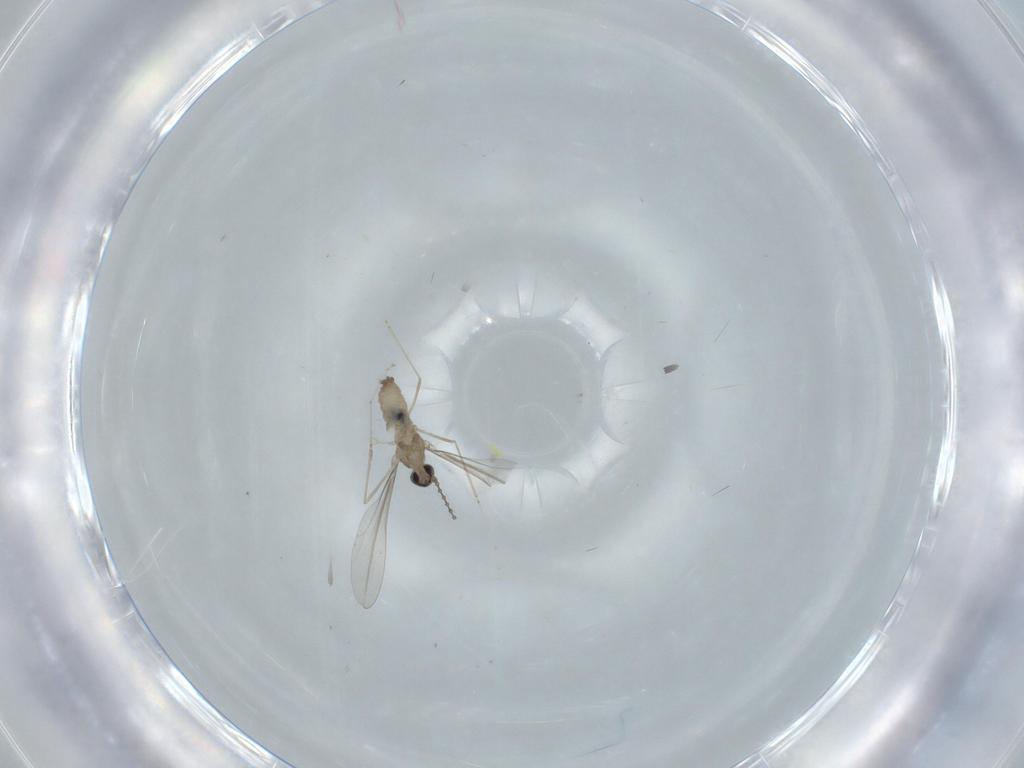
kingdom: Animalia
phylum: Arthropoda
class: Insecta
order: Diptera
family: Cecidomyiidae
